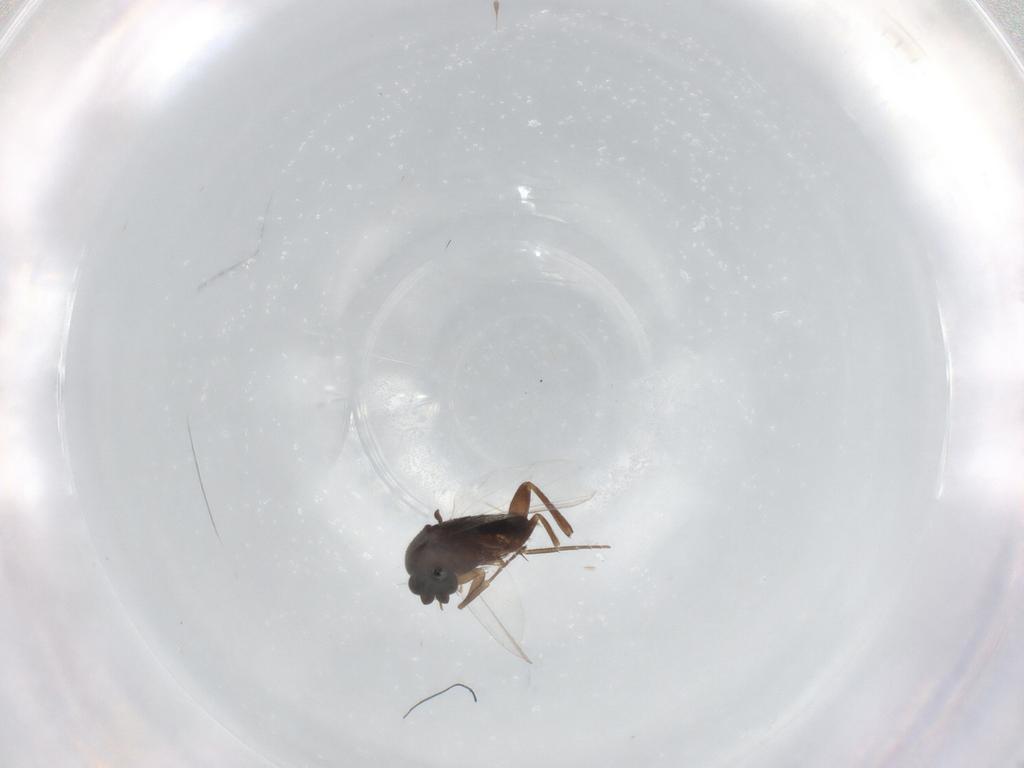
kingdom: Animalia
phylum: Arthropoda
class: Insecta
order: Diptera
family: Phoridae
